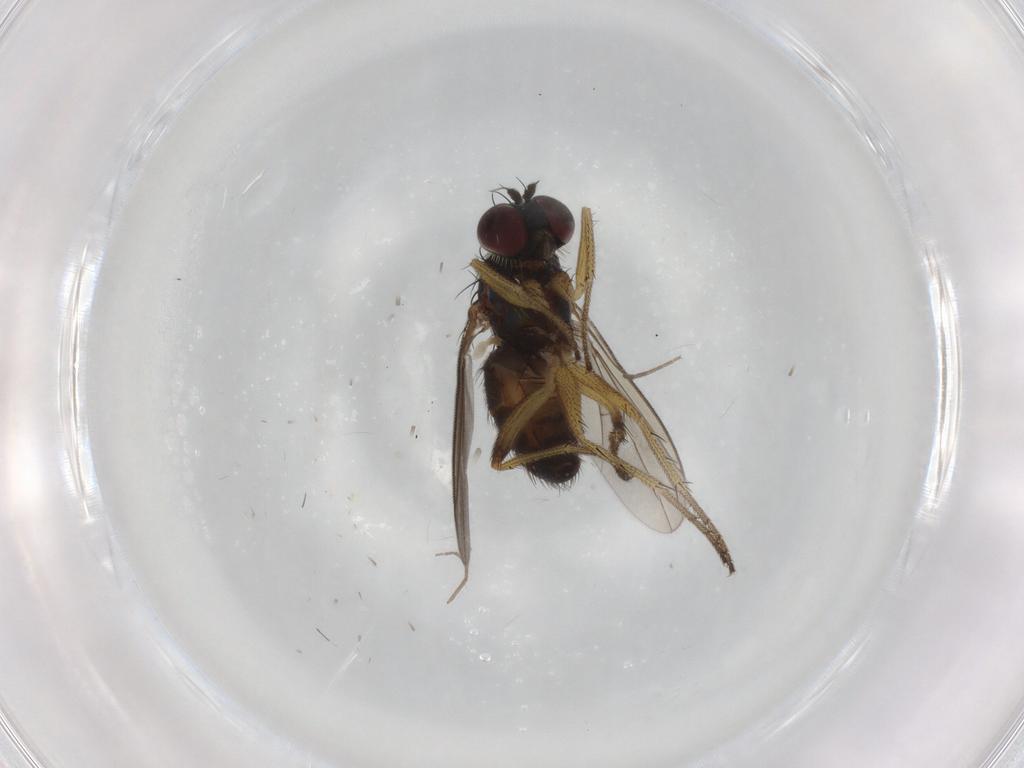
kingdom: Animalia
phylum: Arthropoda
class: Insecta
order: Diptera
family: Dolichopodidae
